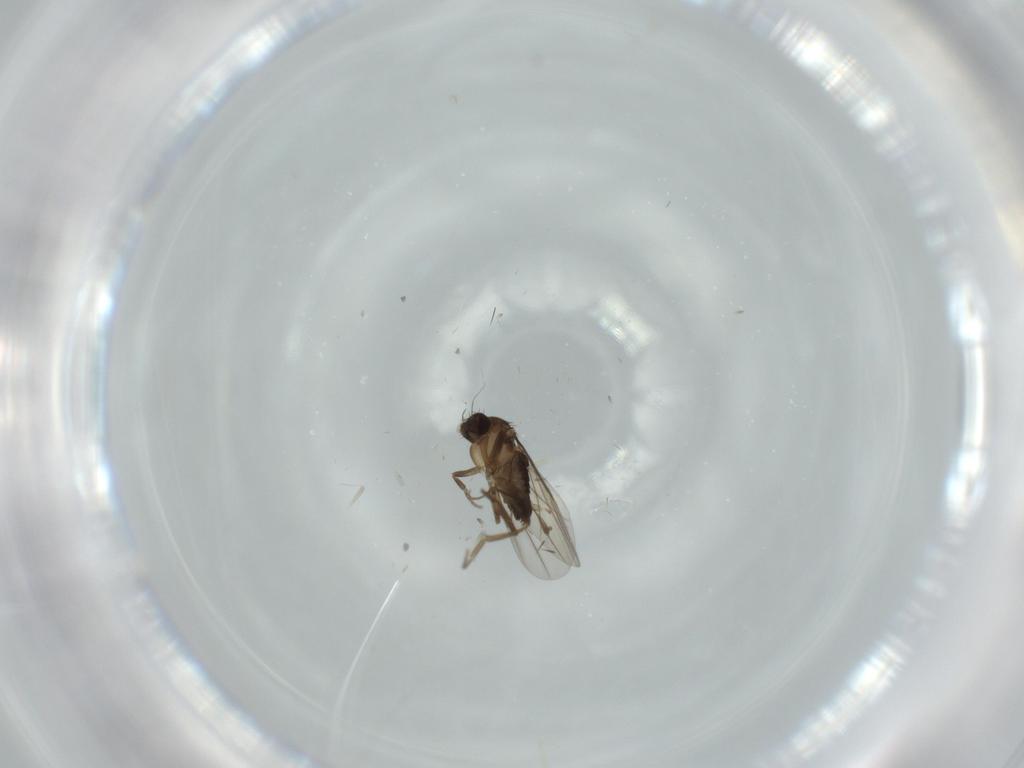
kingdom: Animalia
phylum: Arthropoda
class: Insecta
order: Diptera
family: Phoridae
